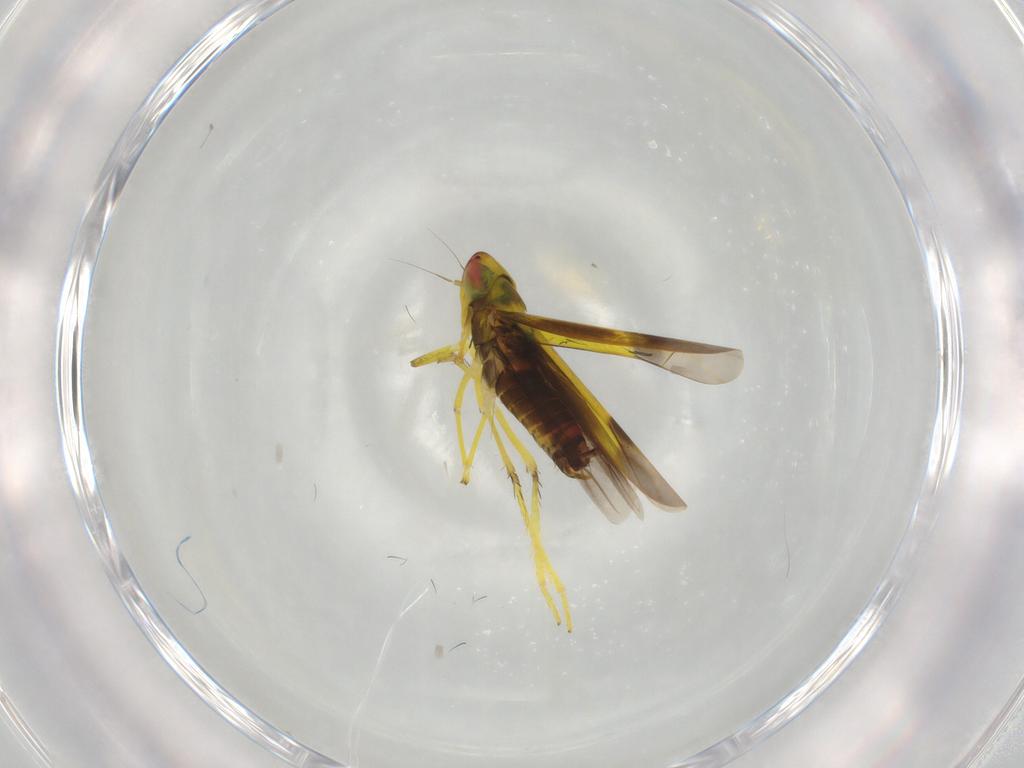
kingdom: Animalia
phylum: Arthropoda
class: Insecta
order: Hemiptera
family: Cicadellidae
